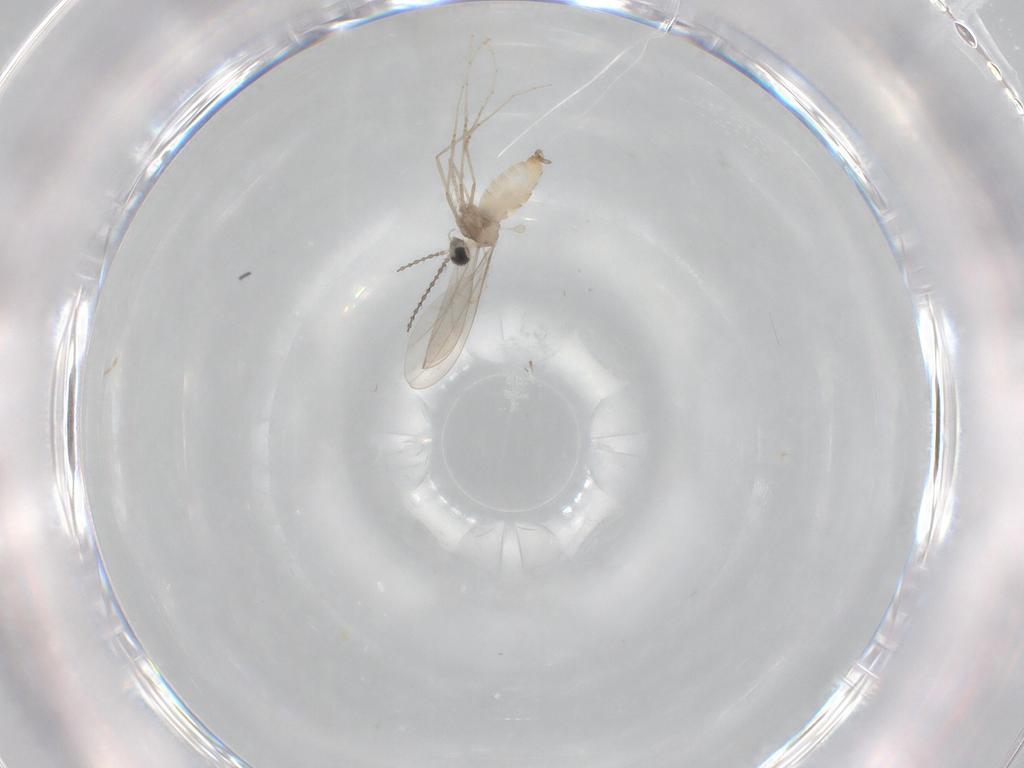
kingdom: Animalia
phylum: Arthropoda
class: Insecta
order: Diptera
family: Cecidomyiidae
